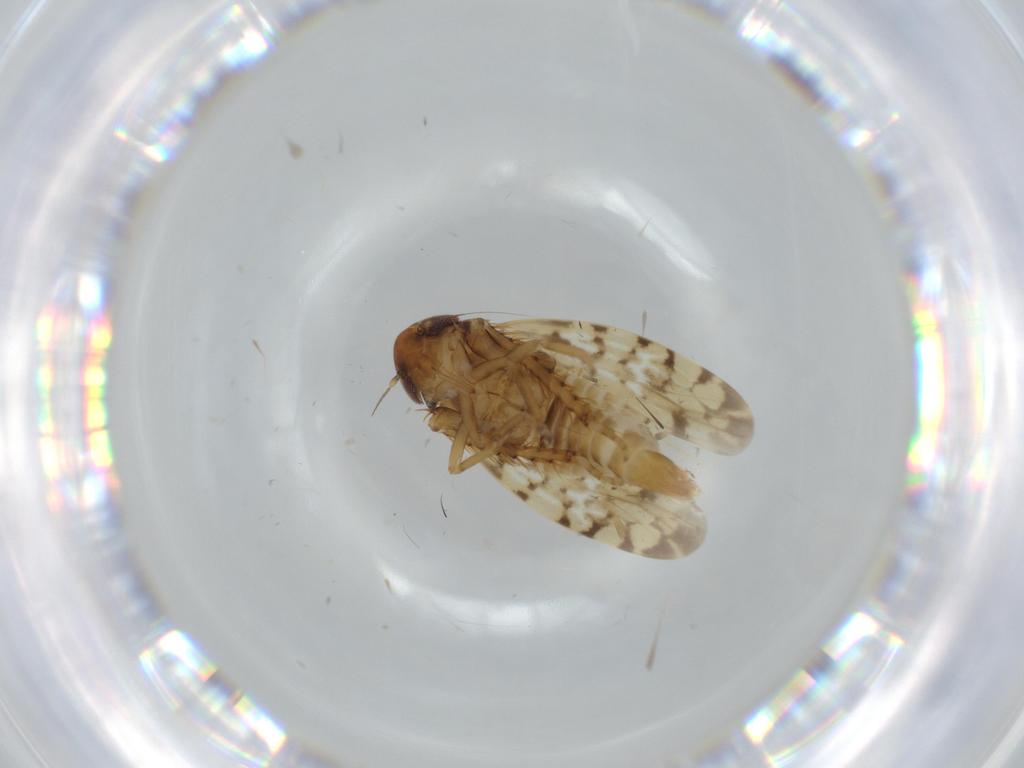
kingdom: Animalia
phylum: Arthropoda
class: Insecta
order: Hemiptera
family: Cicadellidae
